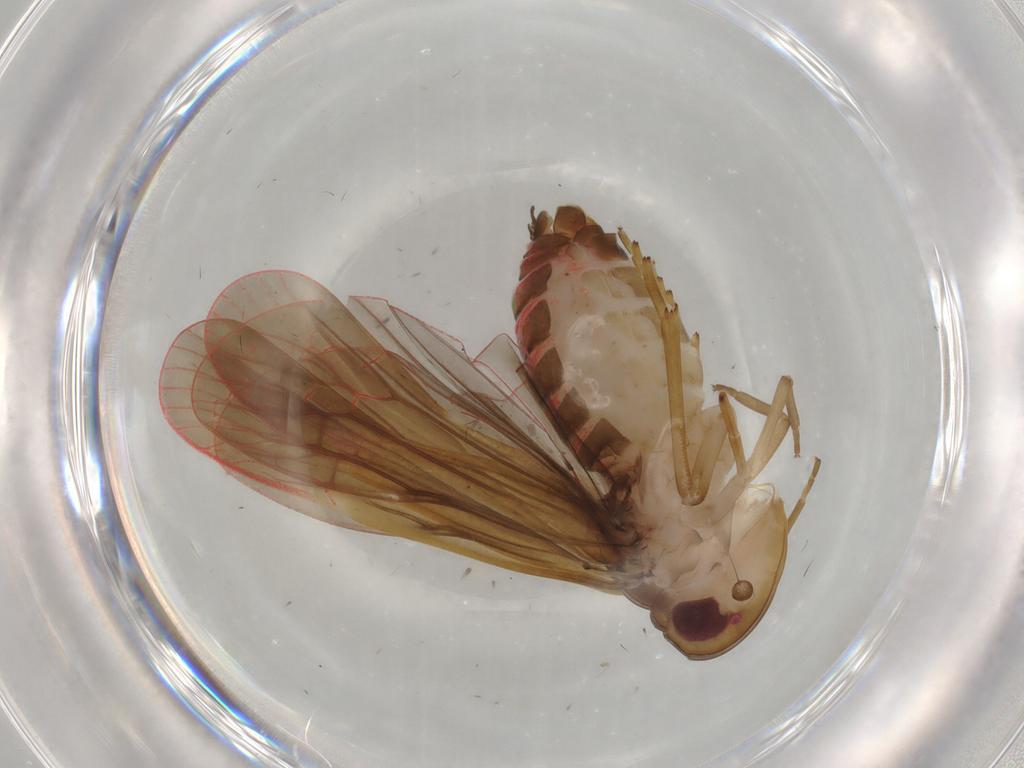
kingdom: Animalia
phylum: Arthropoda
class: Insecta
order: Hemiptera
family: Achilidae
